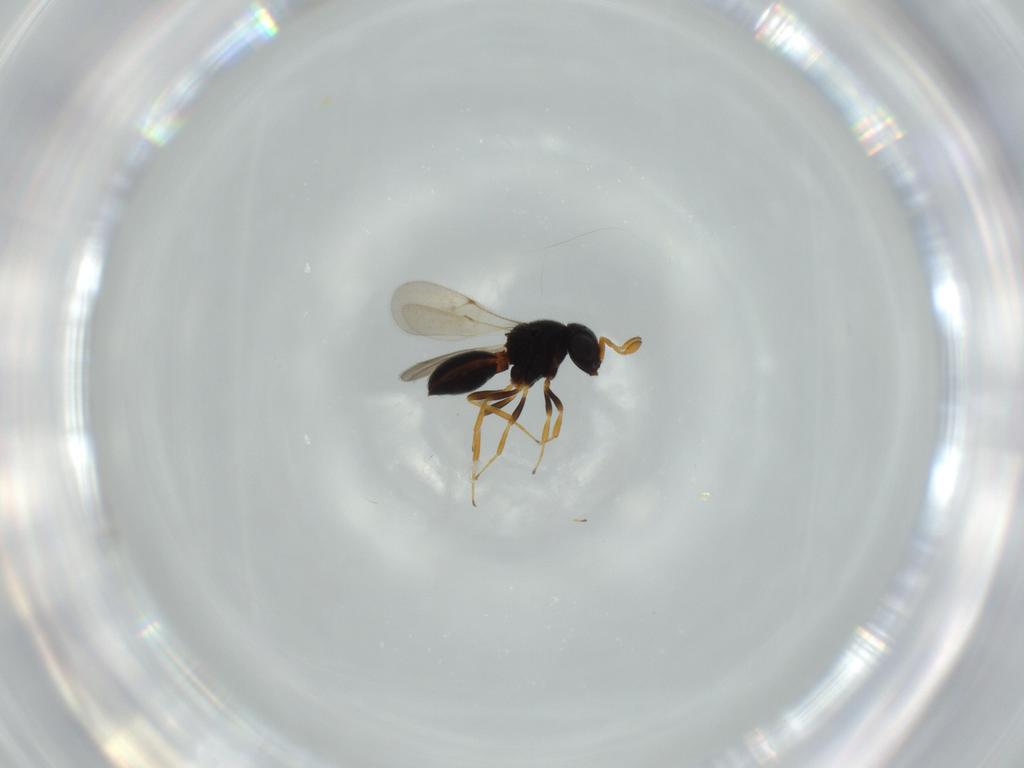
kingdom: Animalia
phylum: Arthropoda
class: Insecta
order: Hymenoptera
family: Scelionidae
